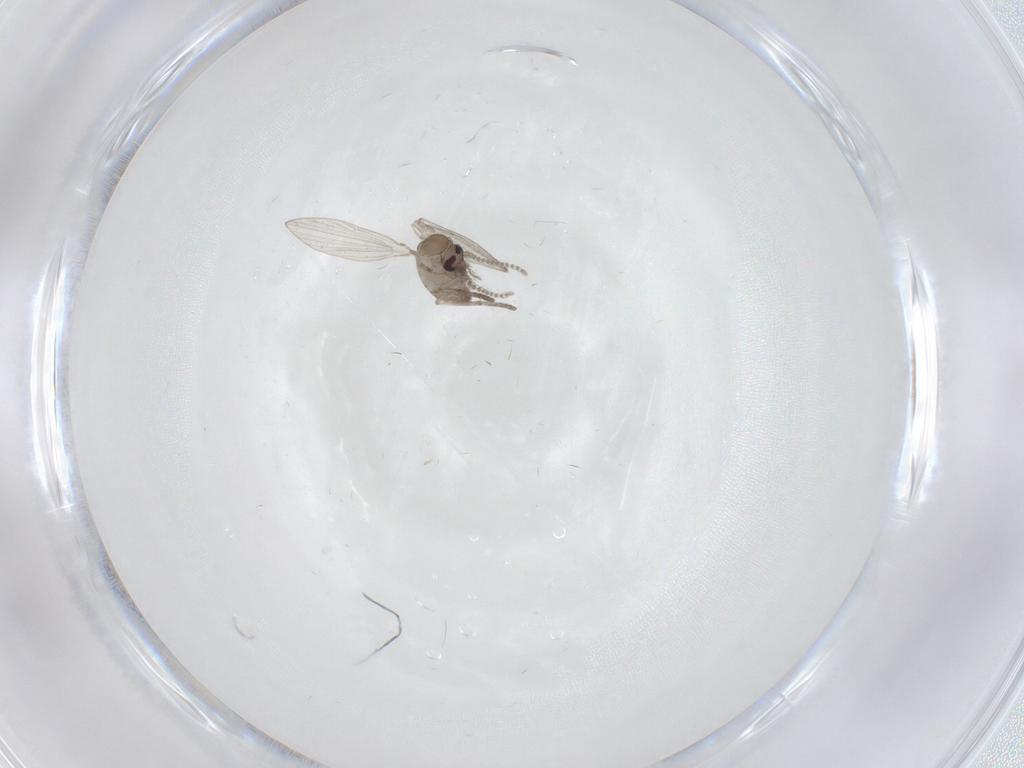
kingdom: Animalia
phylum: Arthropoda
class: Insecta
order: Diptera
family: Psychodidae
